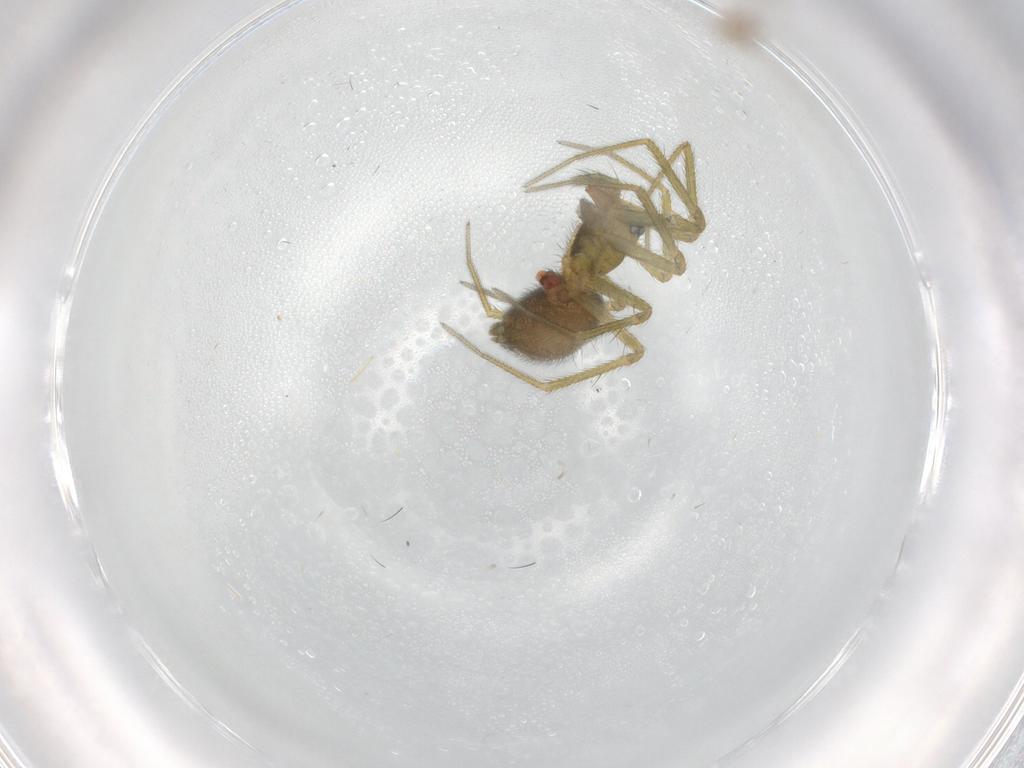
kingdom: Animalia
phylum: Arthropoda
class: Arachnida
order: Araneae
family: Linyphiidae
